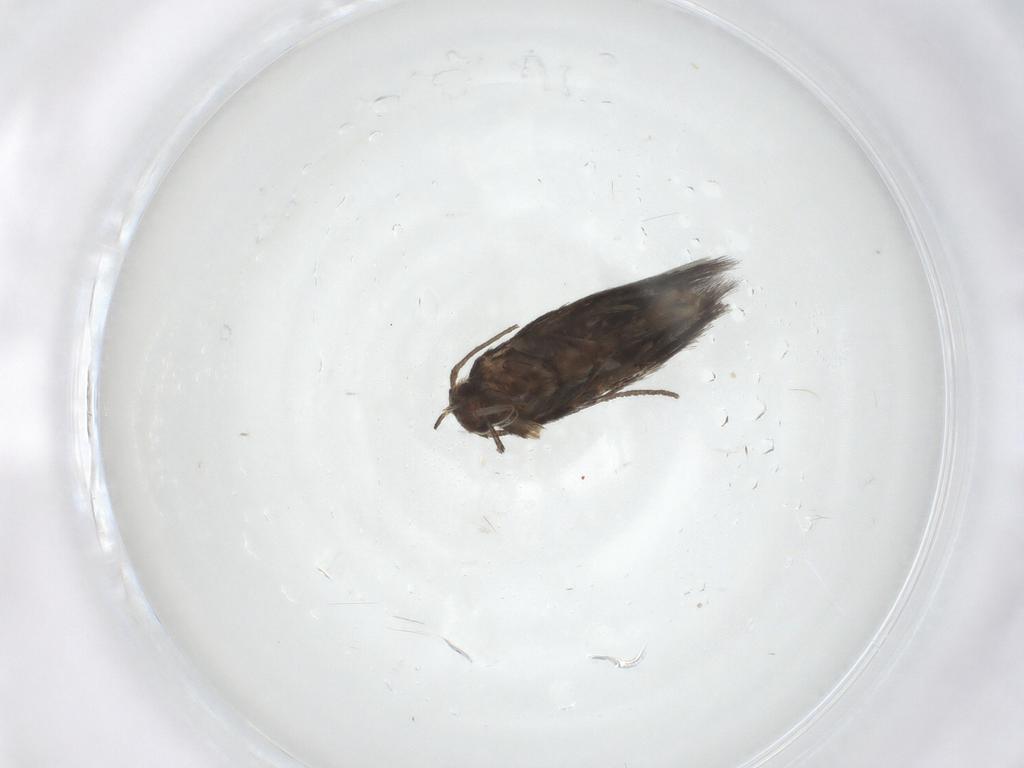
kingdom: Animalia
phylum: Arthropoda
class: Insecta
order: Lepidoptera
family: Elachistidae
